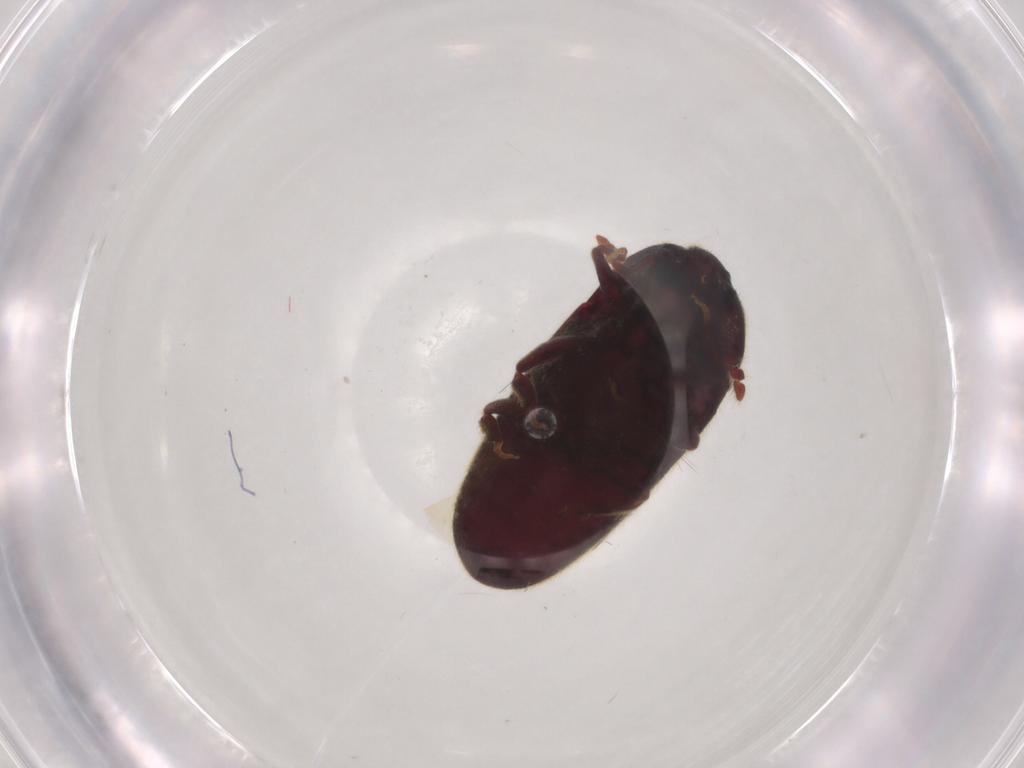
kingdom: Animalia
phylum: Arthropoda
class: Insecta
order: Coleoptera
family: Throscidae
